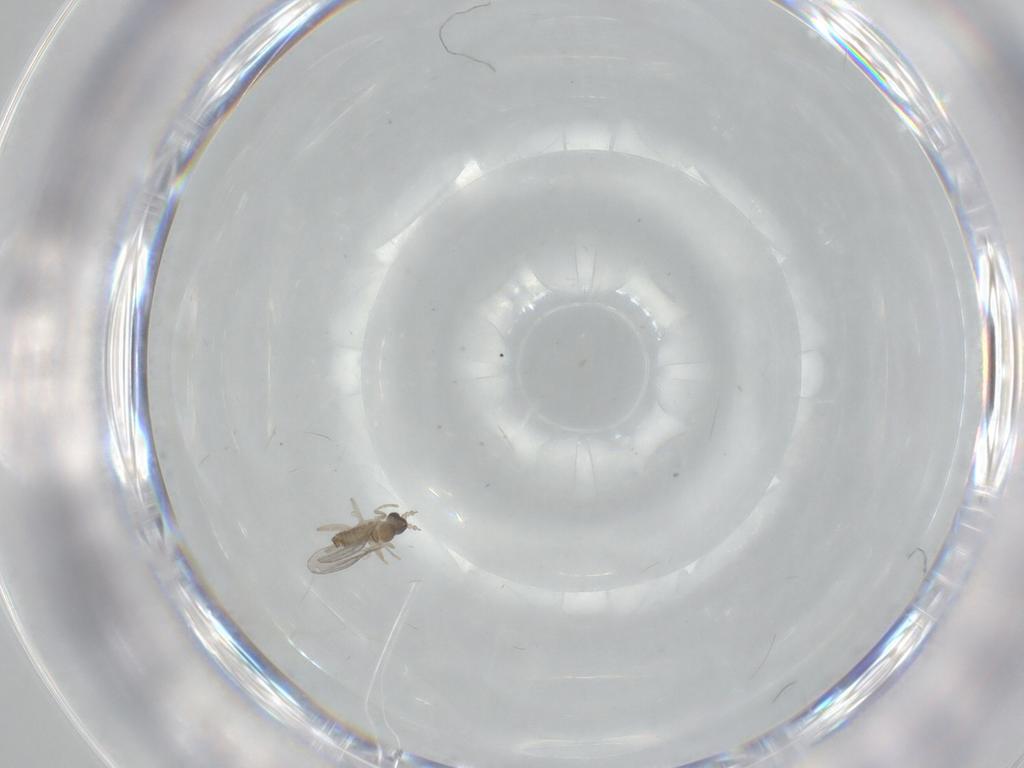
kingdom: Animalia
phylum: Arthropoda
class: Insecta
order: Diptera
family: Cecidomyiidae
